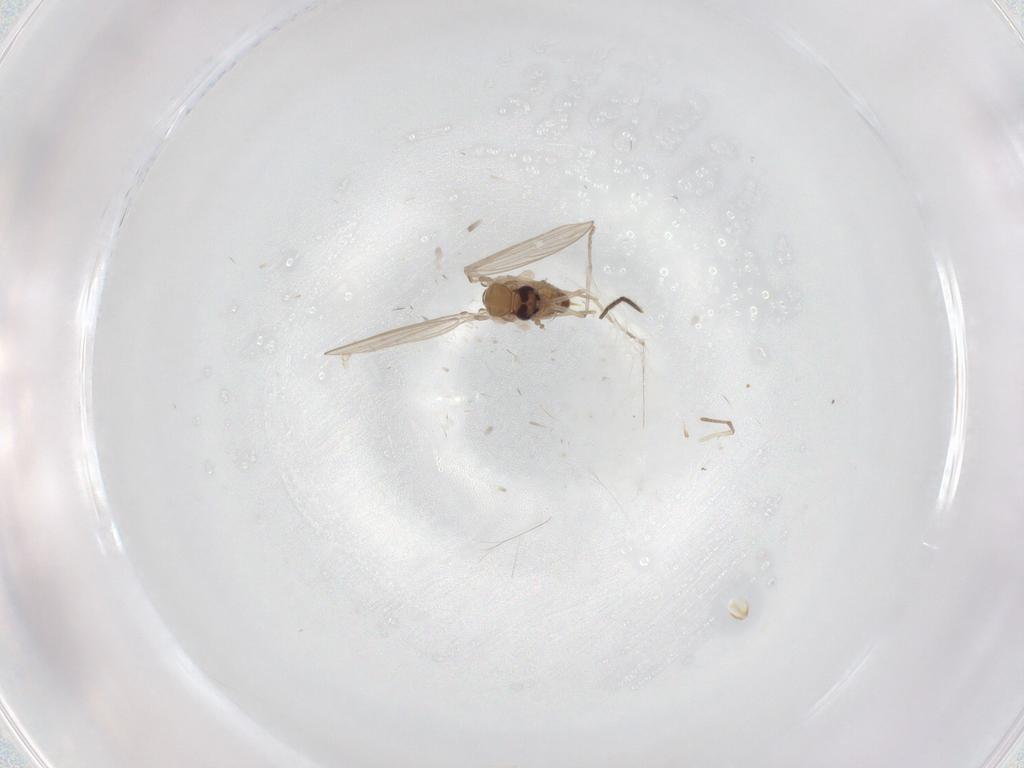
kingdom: Animalia
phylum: Arthropoda
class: Insecta
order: Diptera
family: Psychodidae
